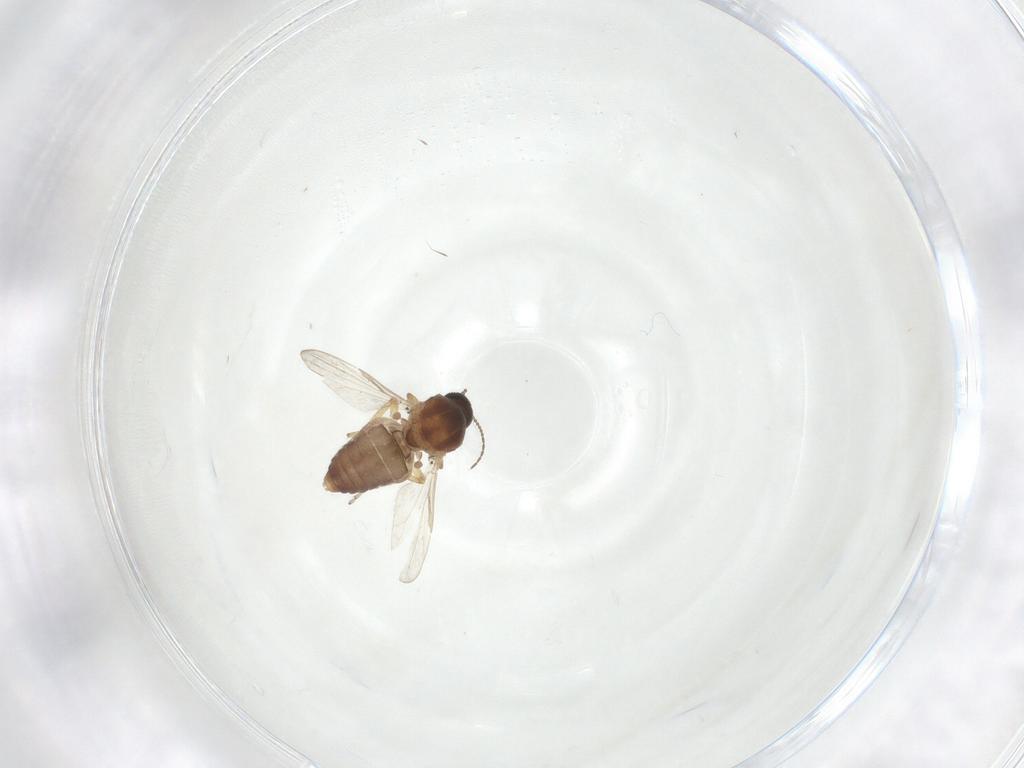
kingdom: Animalia
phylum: Arthropoda
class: Insecta
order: Diptera
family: Ceratopogonidae
